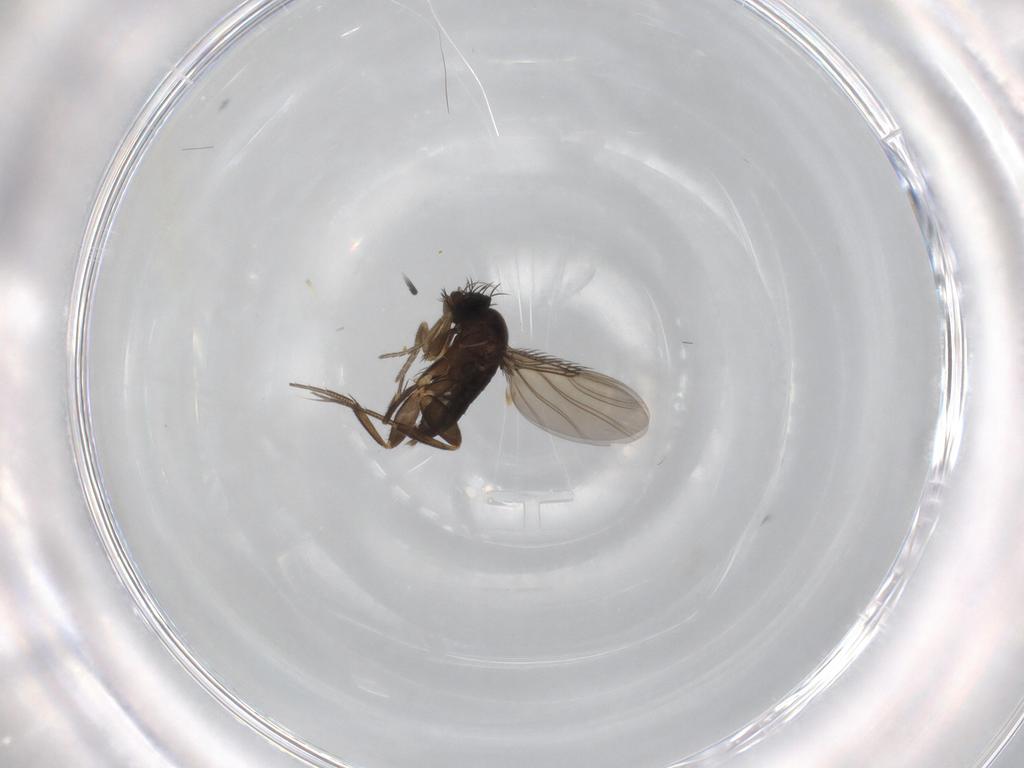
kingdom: Animalia
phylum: Arthropoda
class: Insecta
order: Diptera
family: Phoridae
